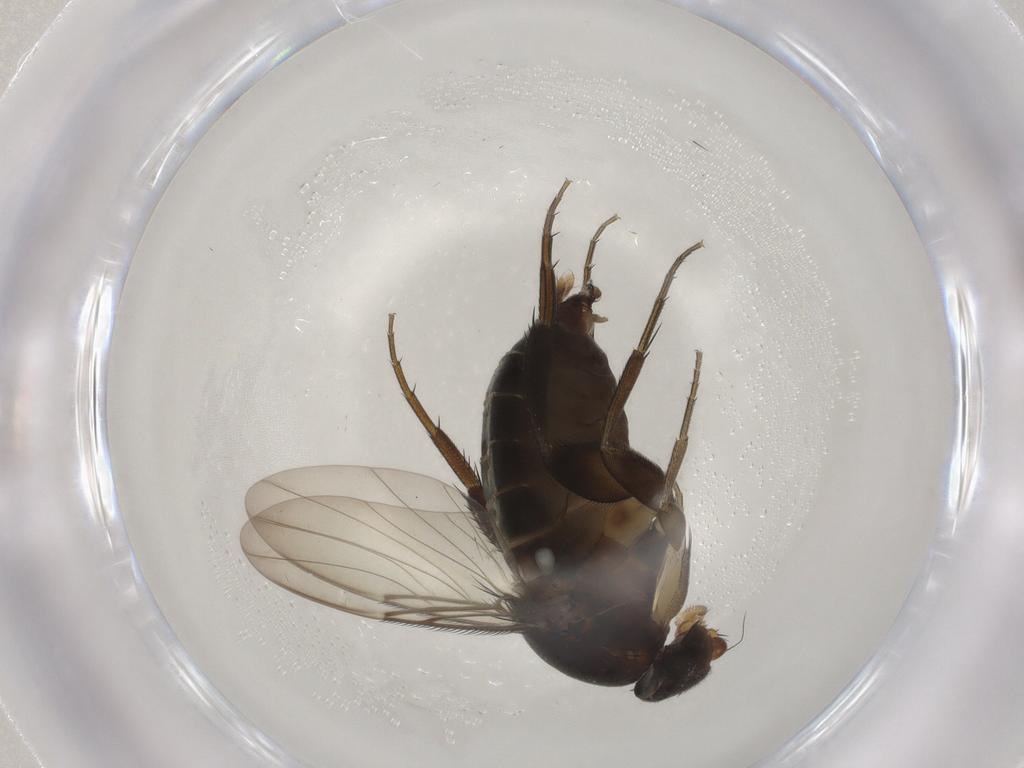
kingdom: Animalia
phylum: Arthropoda
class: Insecta
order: Diptera
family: Phoridae
